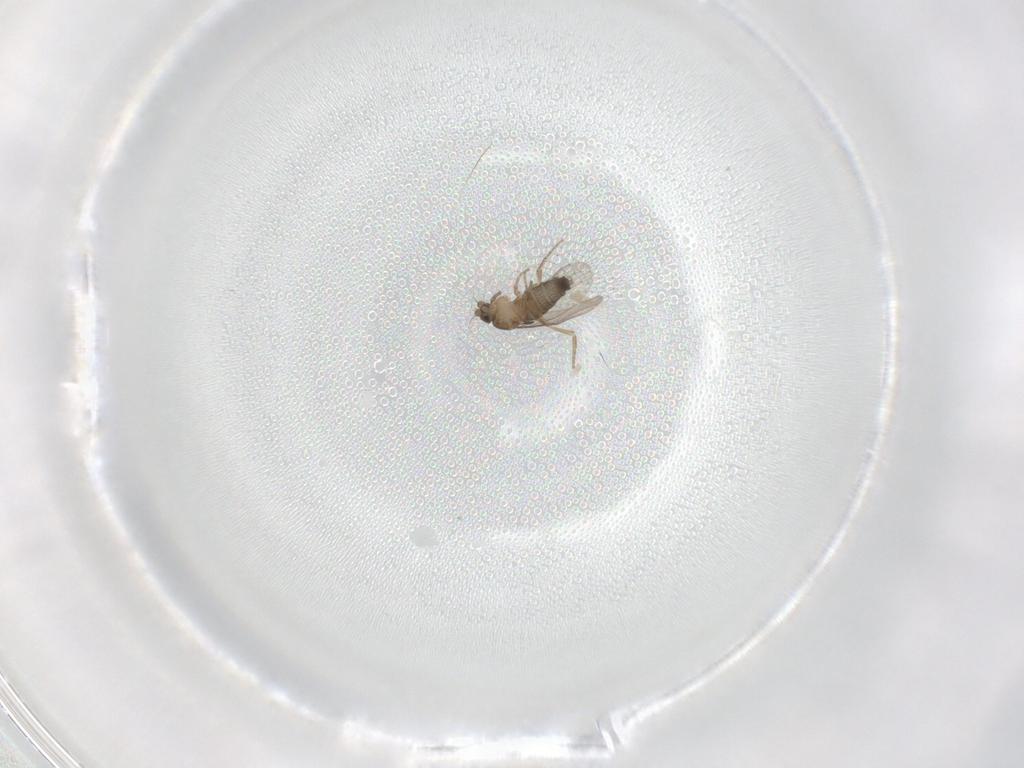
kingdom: Animalia
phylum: Arthropoda
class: Insecta
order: Diptera
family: Sciaridae
